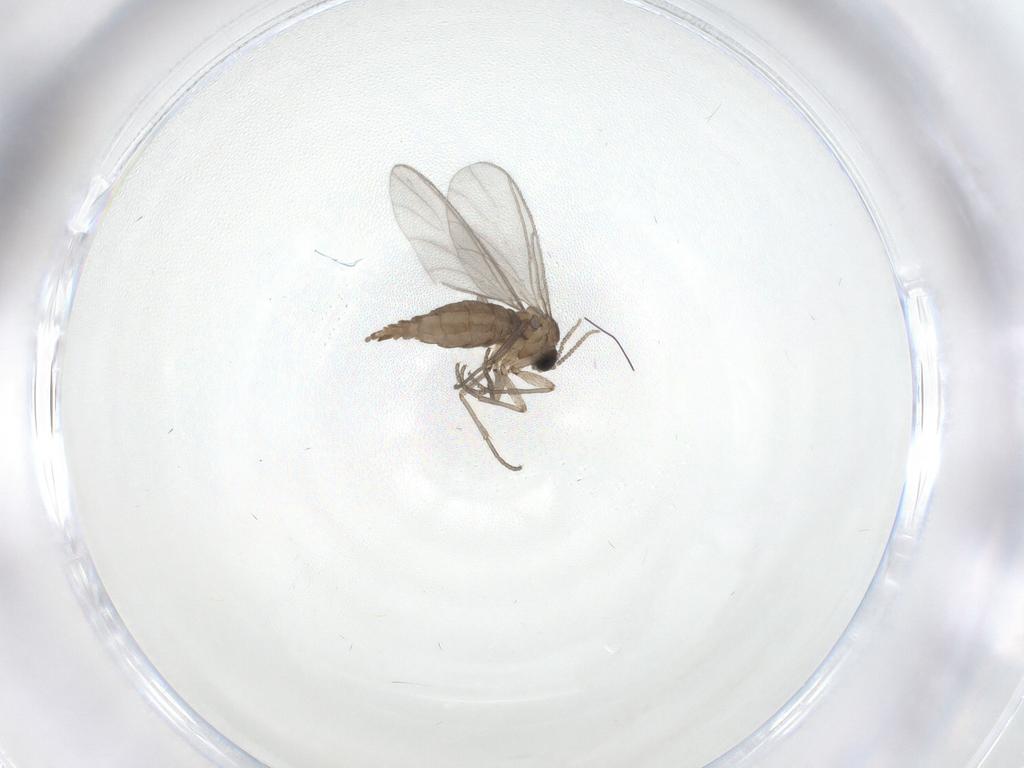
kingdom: Animalia
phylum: Arthropoda
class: Insecta
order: Diptera
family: Sciaridae
